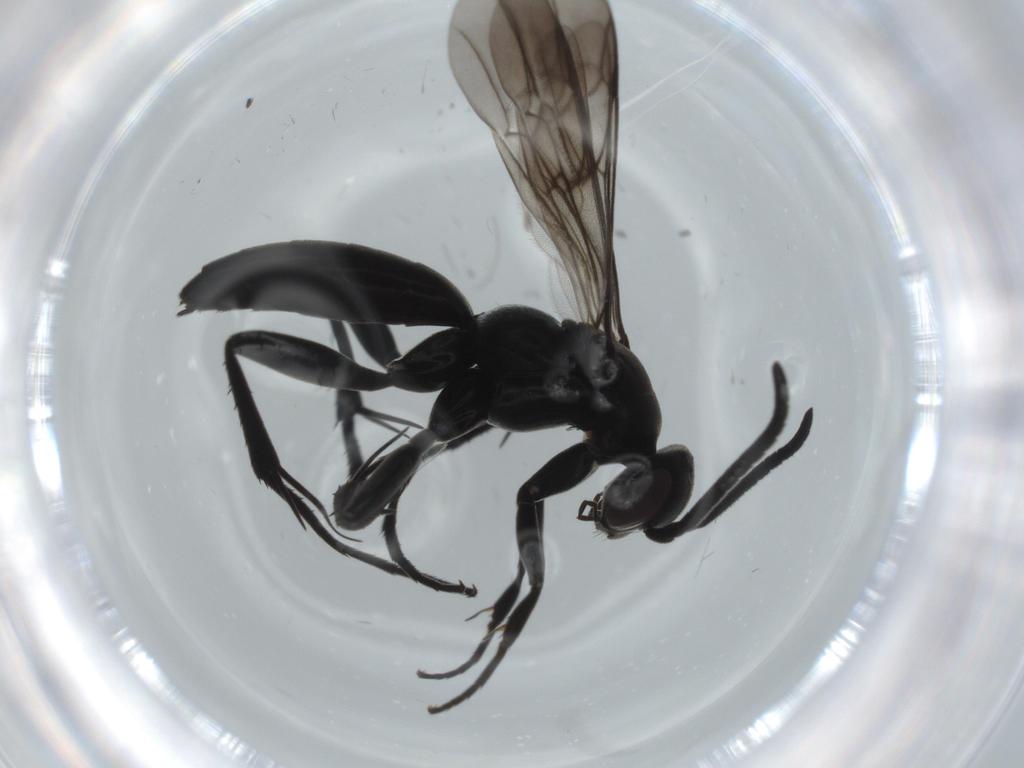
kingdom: Animalia
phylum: Arthropoda
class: Insecta
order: Hymenoptera
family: Pompilidae
